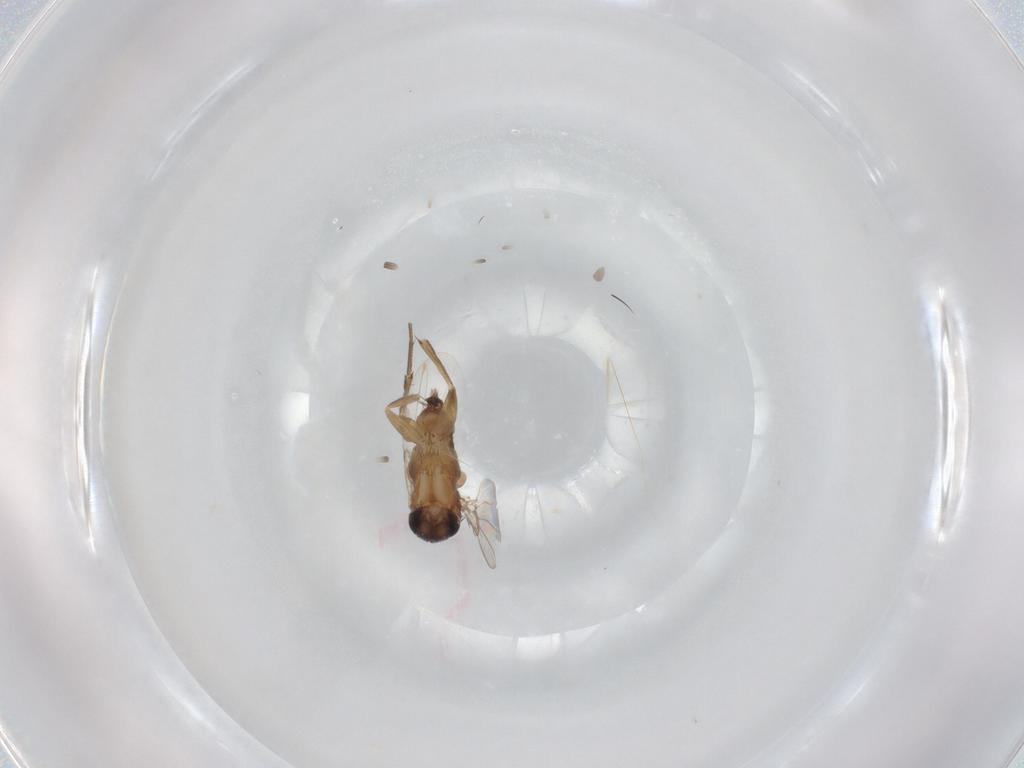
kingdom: Animalia
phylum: Arthropoda
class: Insecta
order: Diptera
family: Phoridae
